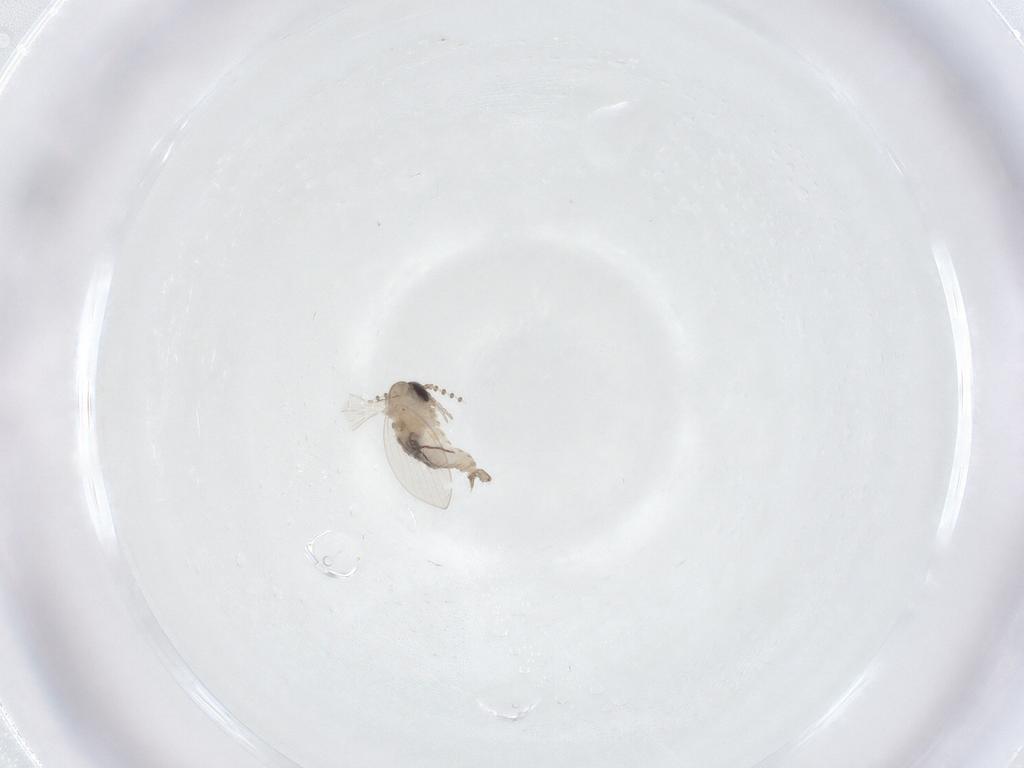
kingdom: Animalia
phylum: Arthropoda
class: Insecta
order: Diptera
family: Psychodidae
